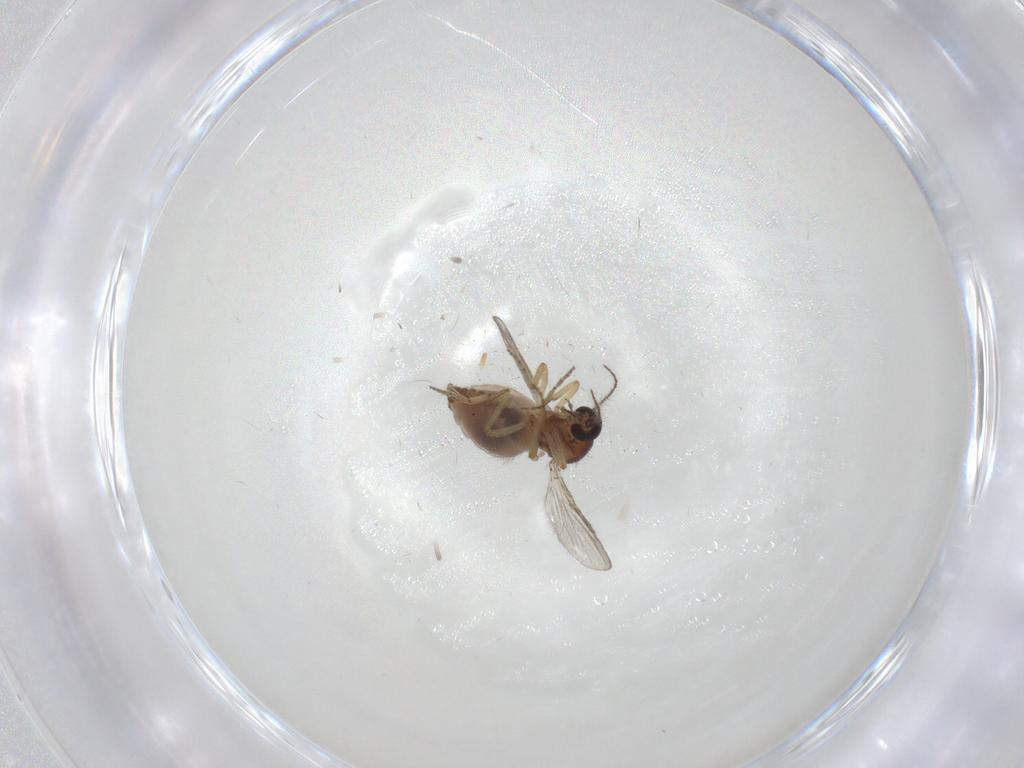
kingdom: Animalia
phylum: Arthropoda
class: Insecta
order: Diptera
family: Ceratopogonidae
